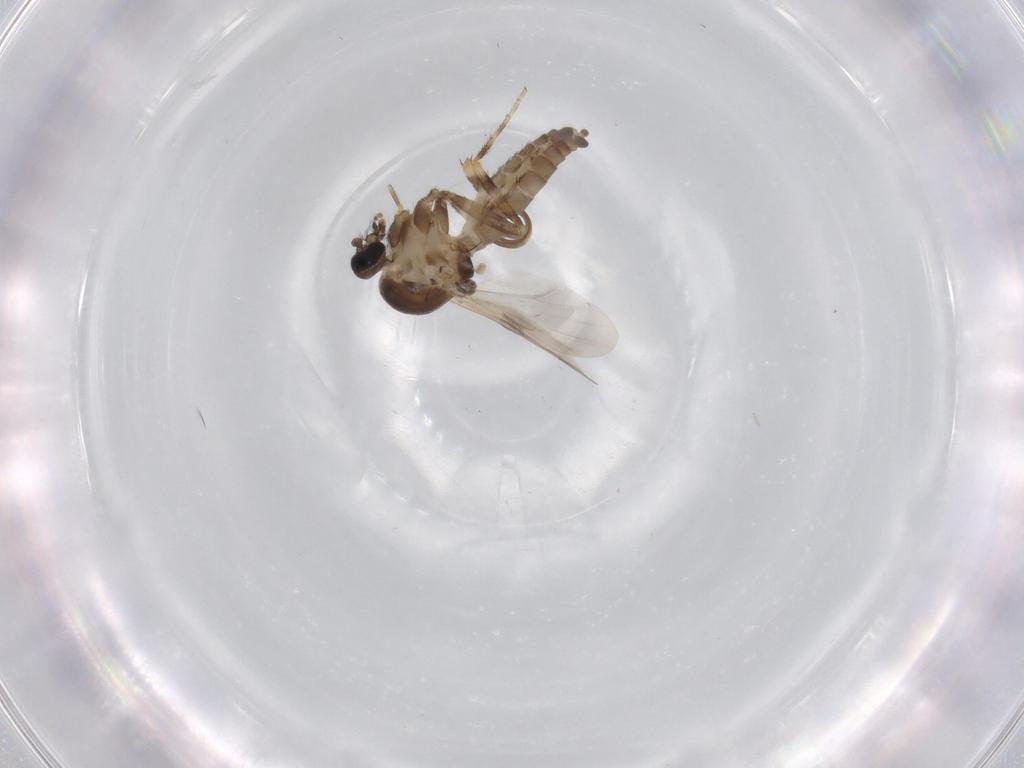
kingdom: Animalia
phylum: Arthropoda
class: Insecta
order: Diptera
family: Ceratopogonidae
